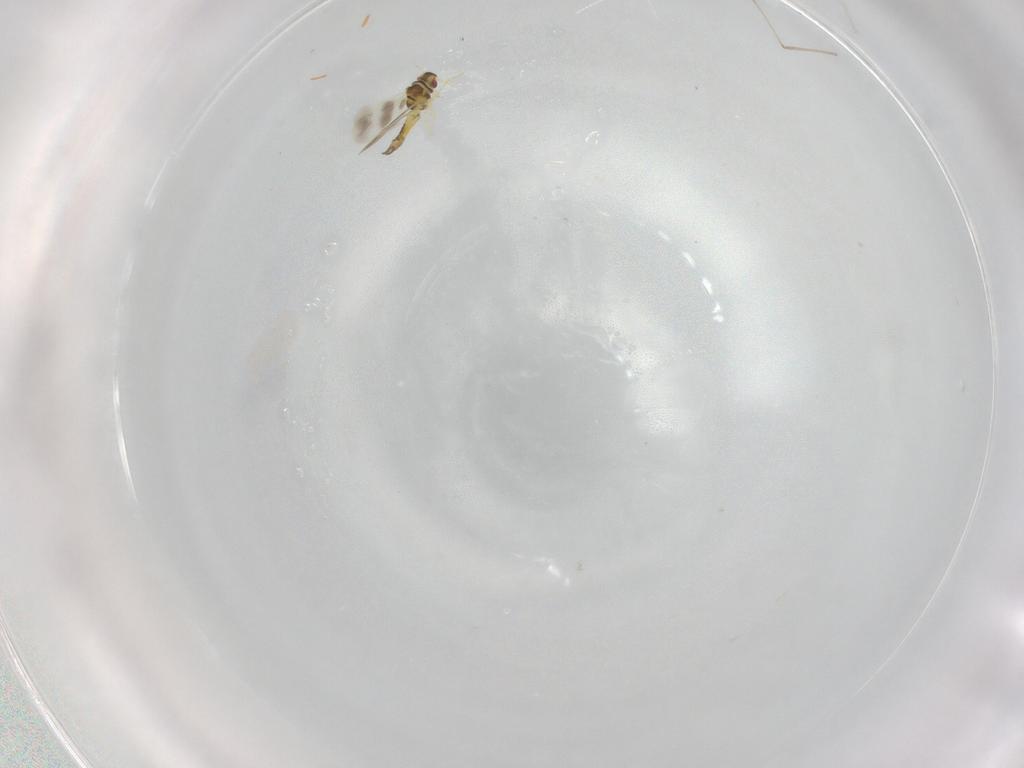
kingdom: Animalia
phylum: Arthropoda
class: Insecta
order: Hemiptera
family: Aleyrodidae
